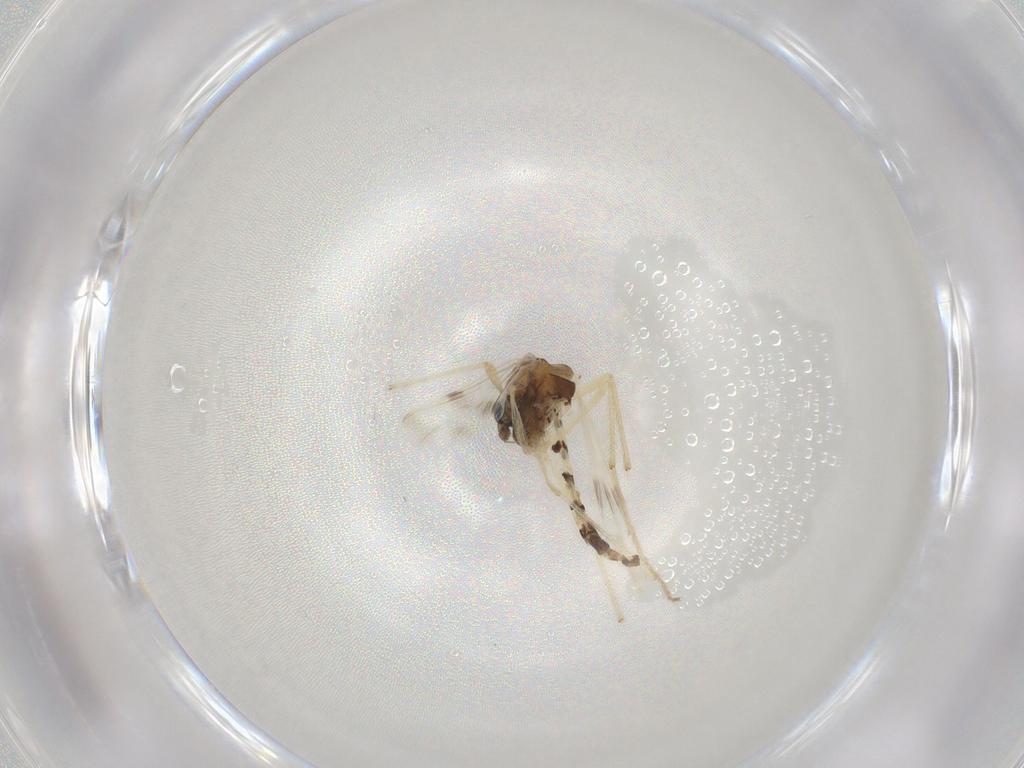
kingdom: Animalia
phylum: Arthropoda
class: Insecta
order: Diptera
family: Chironomidae
